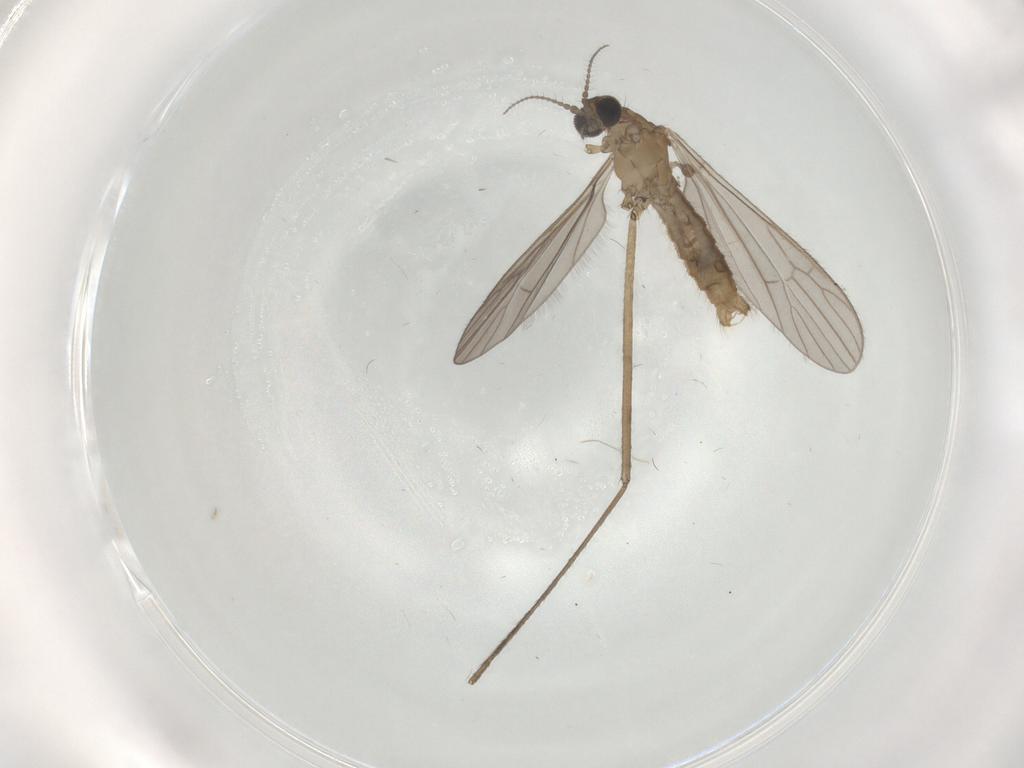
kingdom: Animalia
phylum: Arthropoda
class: Insecta
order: Diptera
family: Limoniidae
